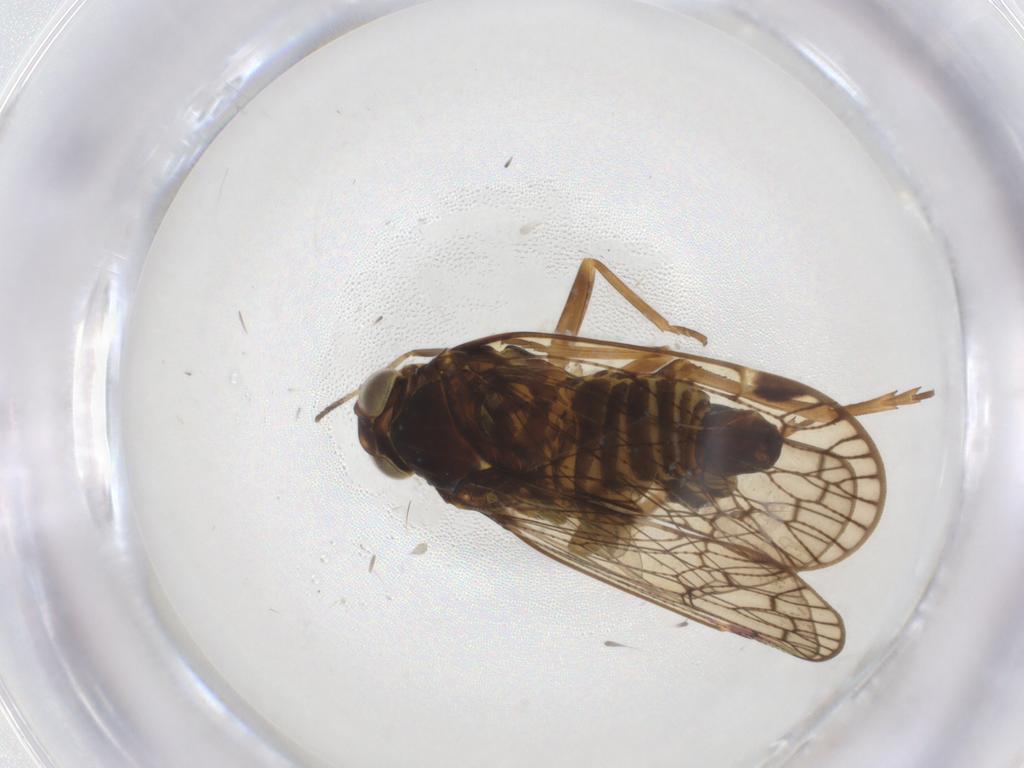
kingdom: Animalia
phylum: Arthropoda
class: Insecta
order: Hemiptera
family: Cixiidae
